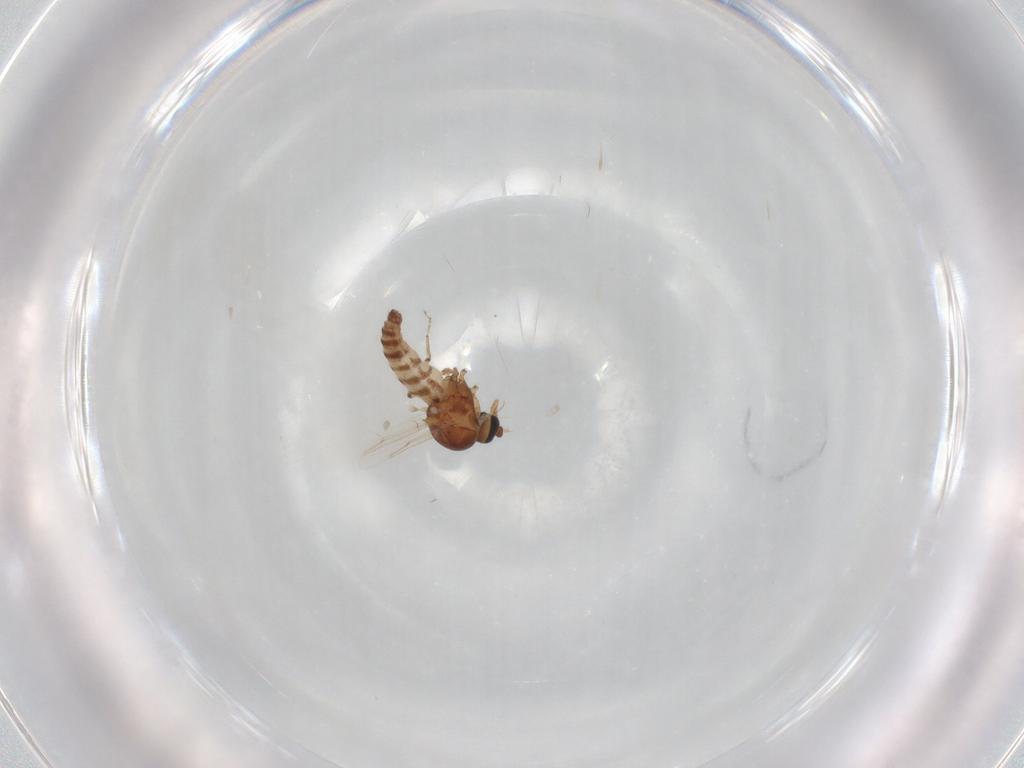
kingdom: Animalia
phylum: Arthropoda
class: Insecta
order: Diptera
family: Ceratopogonidae
